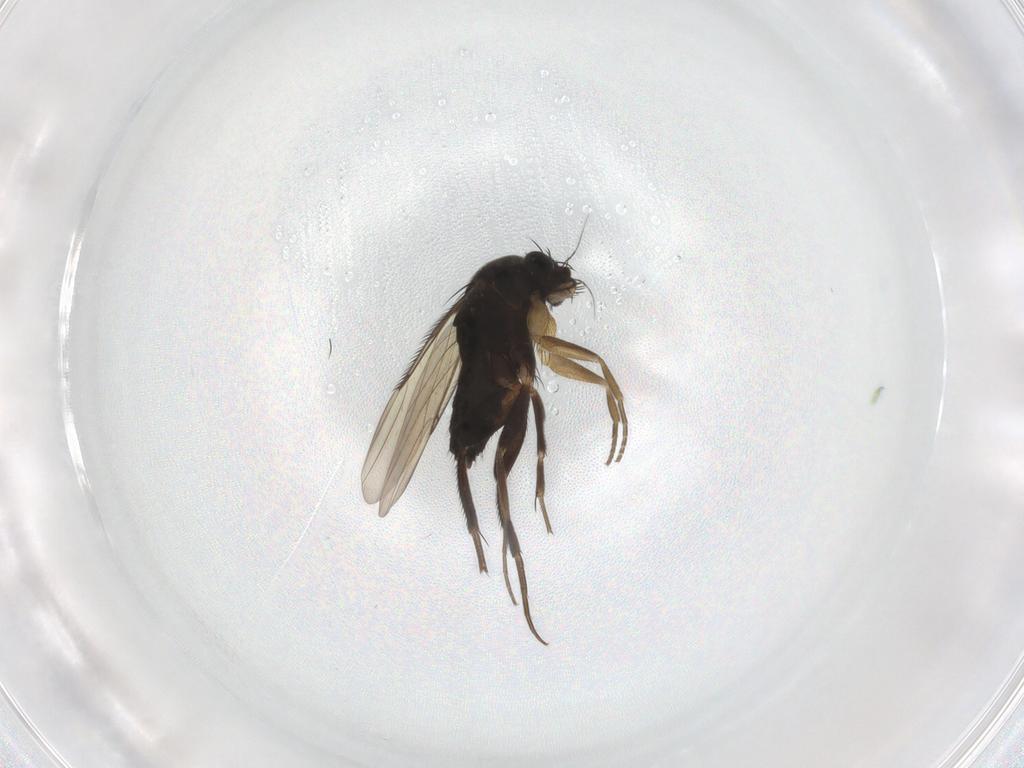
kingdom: Animalia
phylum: Arthropoda
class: Insecta
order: Diptera
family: Phoridae
